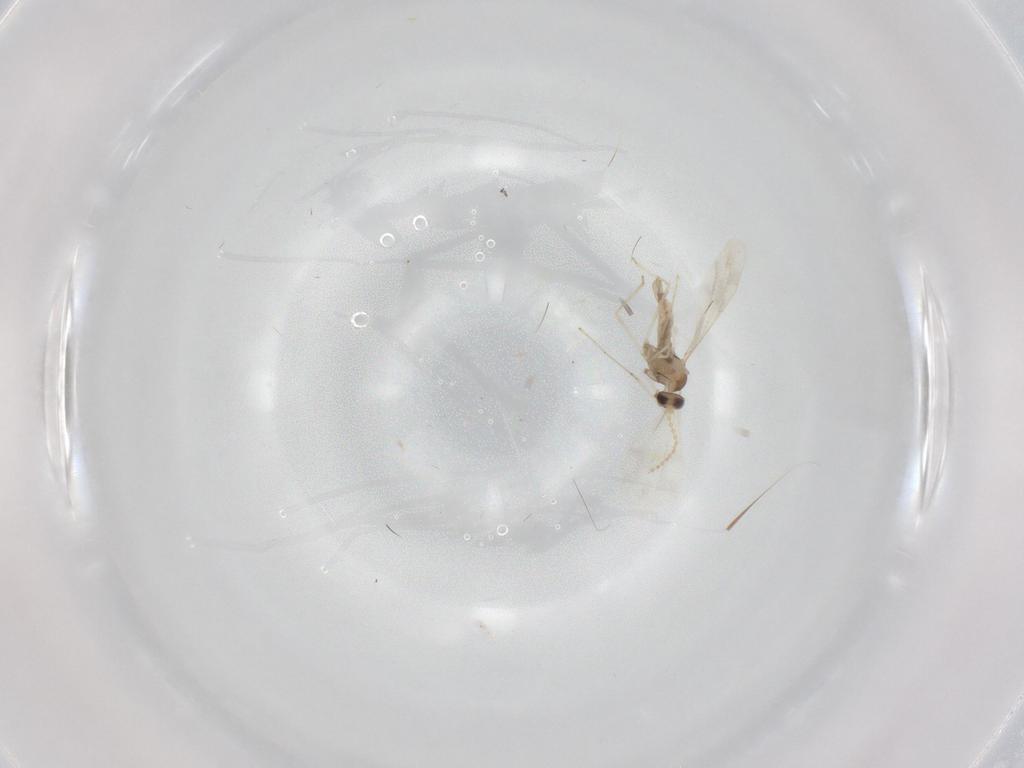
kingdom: Animalia
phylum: Arthropoda
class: Insecta
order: Diptera
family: Cecidomyiidae
